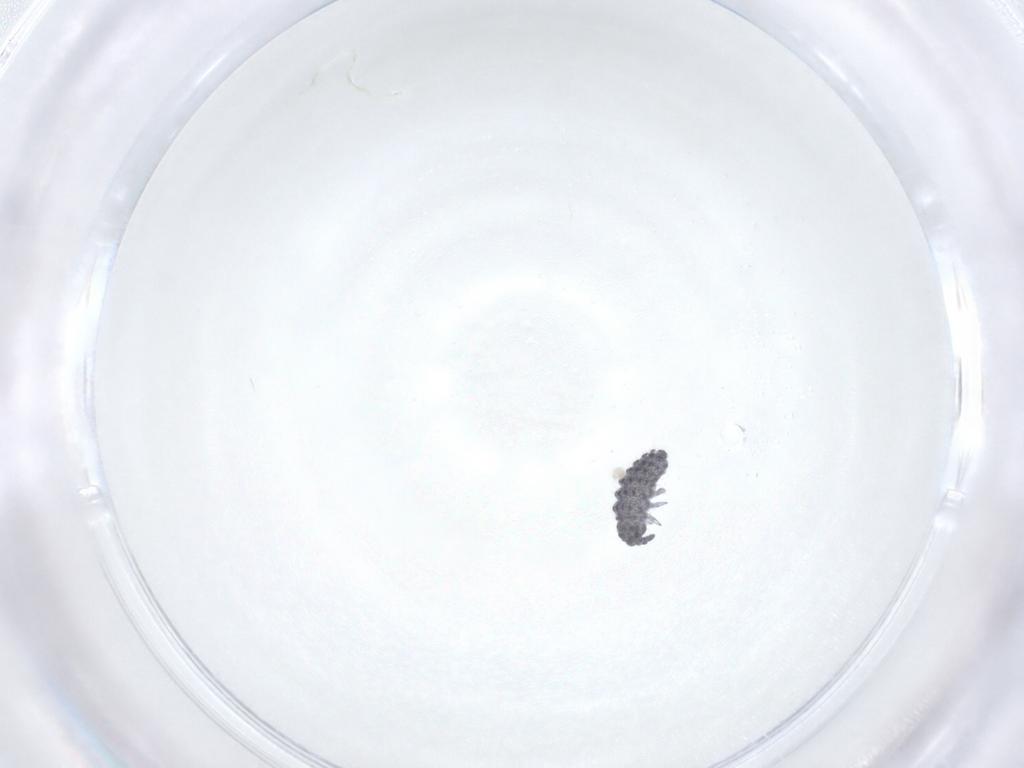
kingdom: Animalia
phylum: Arthropoda
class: Collembola
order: Poduromorpha
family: Neanuridae
